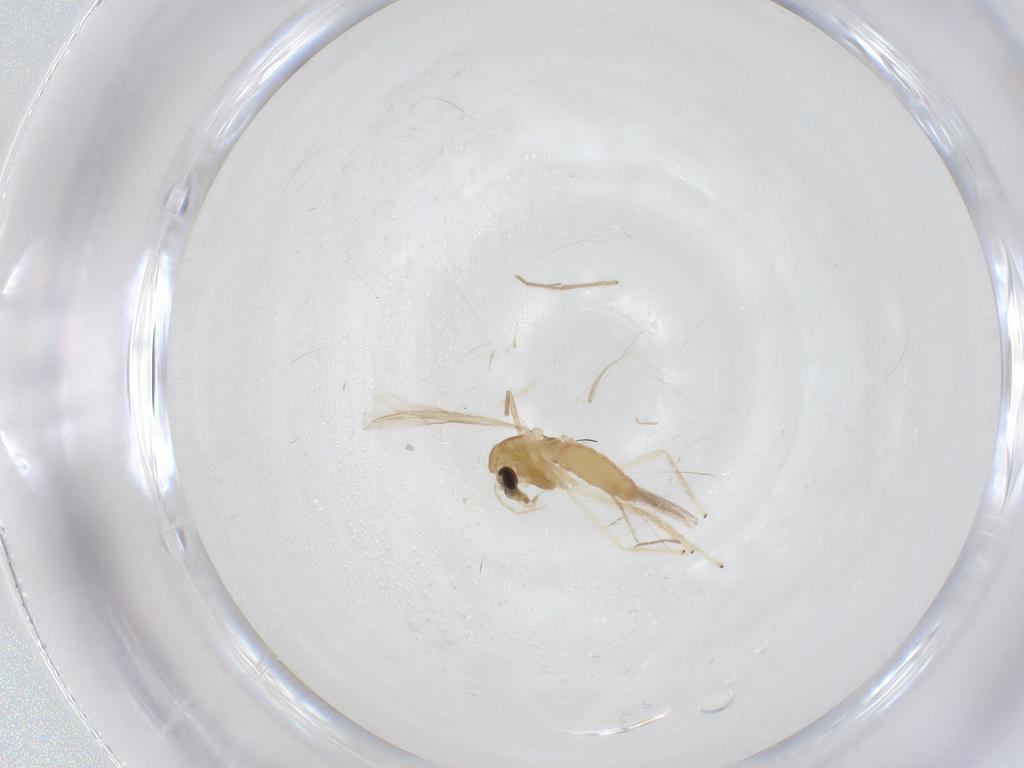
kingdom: Animalia
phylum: Arthropoda
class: Insecta
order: Diptera
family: Chironomidae
